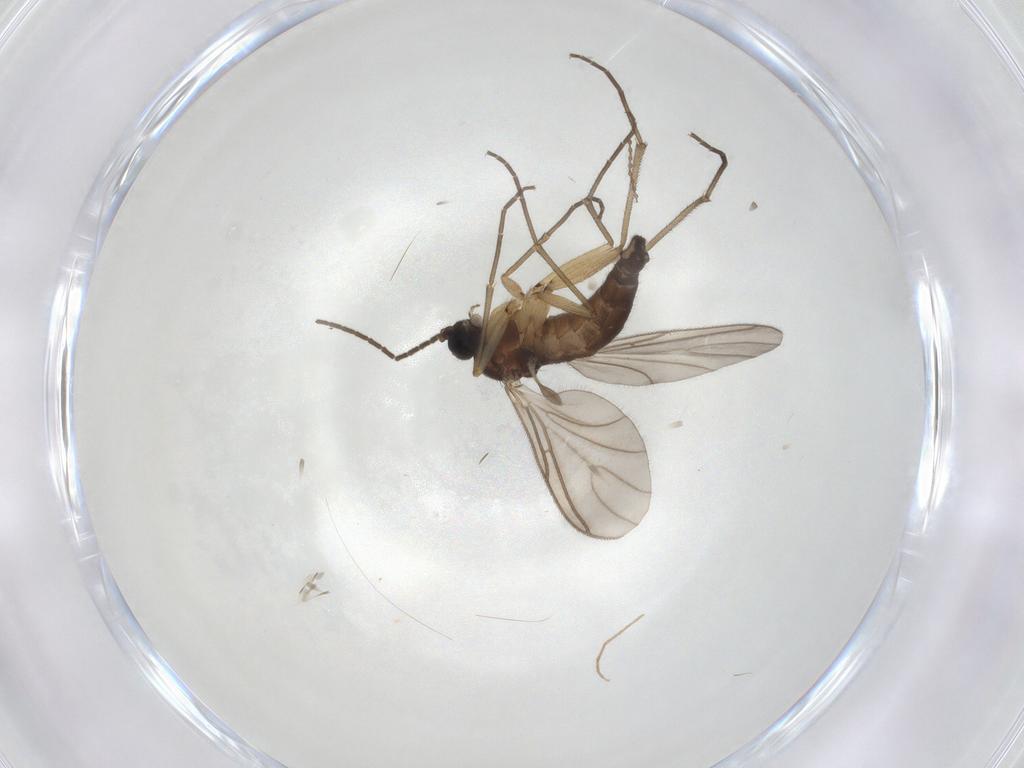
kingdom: Animalia
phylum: Arthropoda
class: Insecta
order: Diptera
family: Sciaridae
